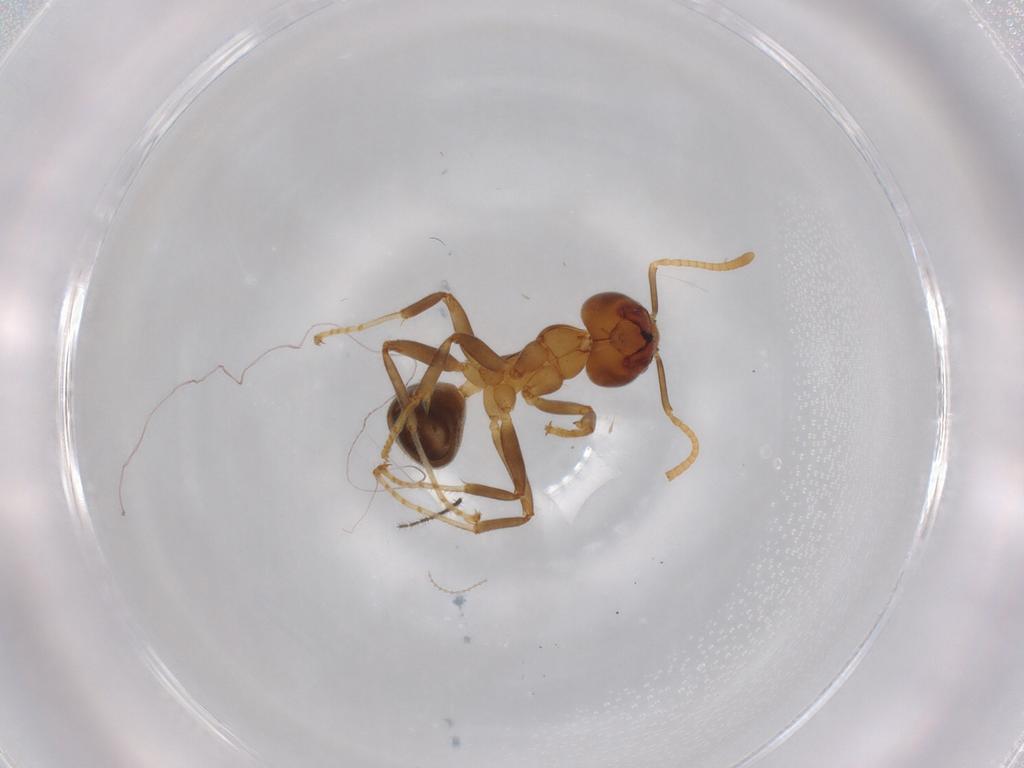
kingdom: Animalia
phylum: Arthropoda
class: Insecta
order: Hymenoptera
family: Formicidae
